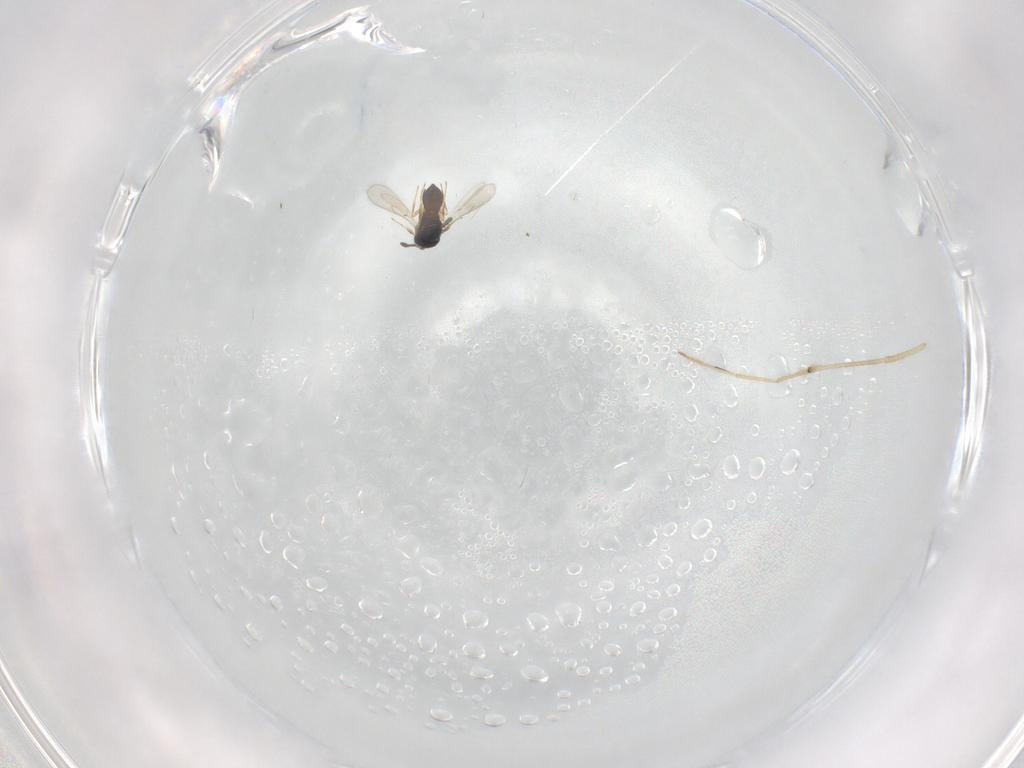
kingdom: Animalia
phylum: Arthropoda
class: Insecta
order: Hymenoptera
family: Scelionidae
